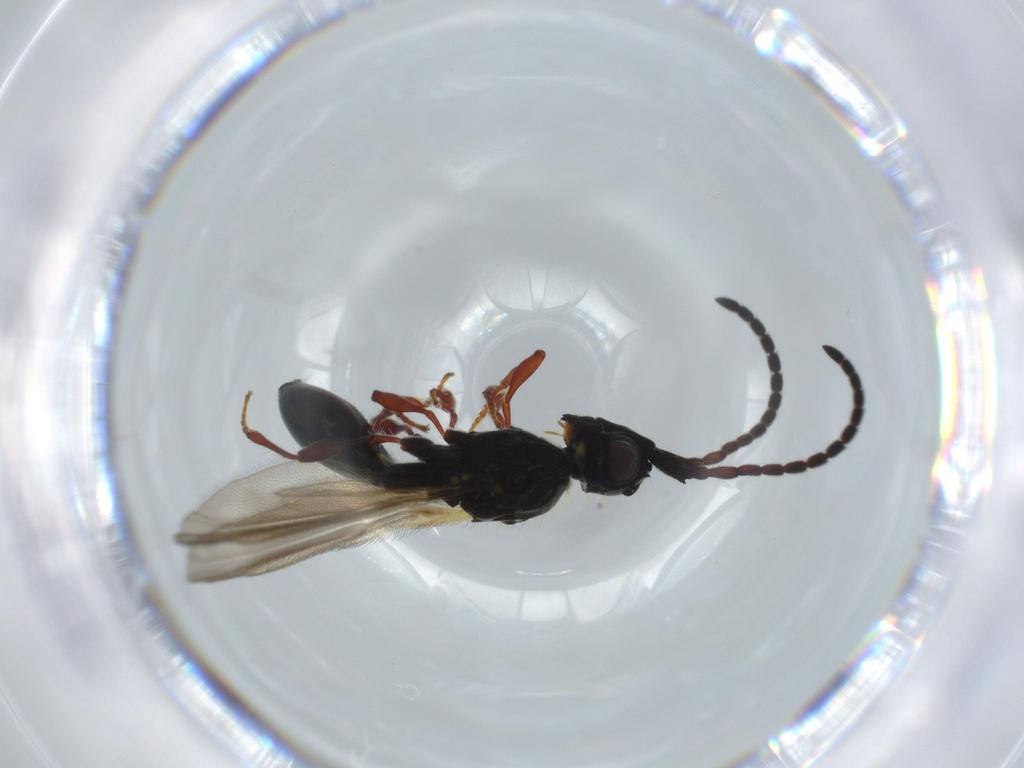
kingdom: Animalia
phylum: Arthropoda
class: Insecta
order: Hymenoptera
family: Diapriidae
